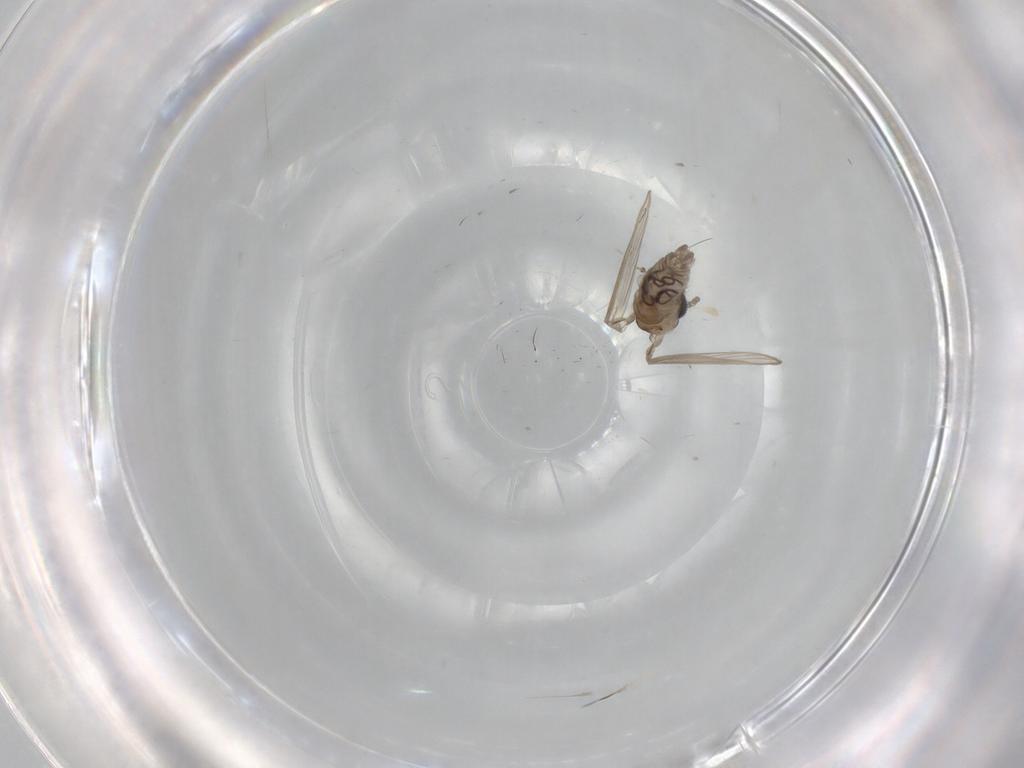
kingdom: Animalia
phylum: Arthropoda
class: Insecta
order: Diptera
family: Psychodidae
